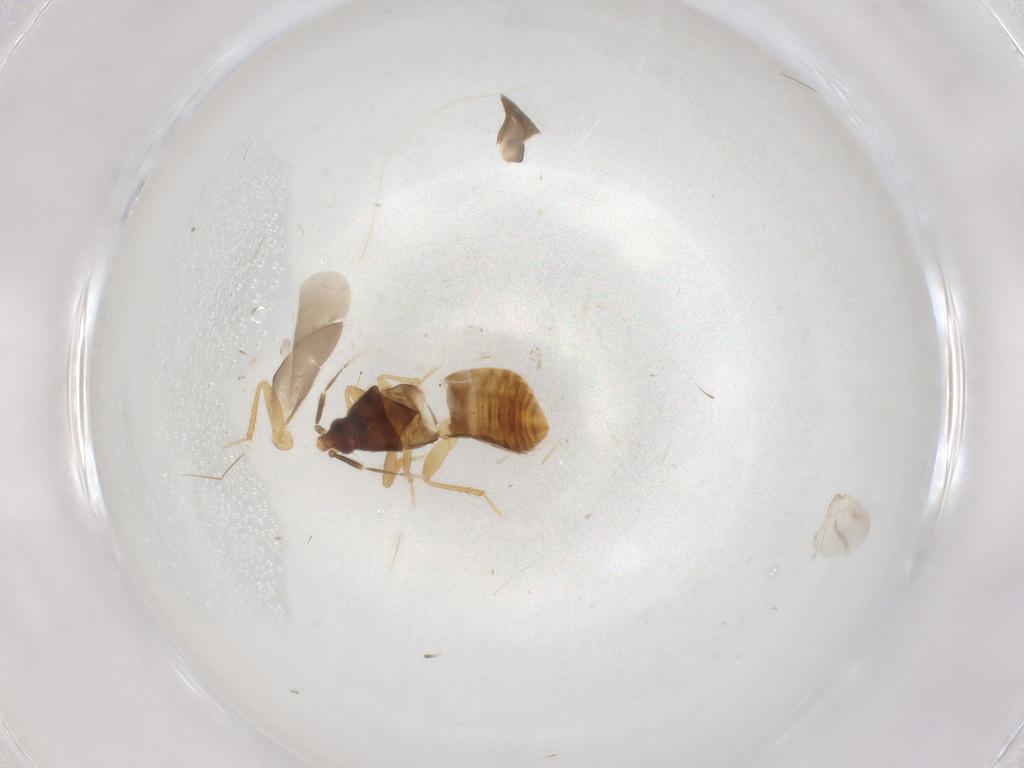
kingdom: Animalia
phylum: Arthropoda
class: Insecta
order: Hemiptera
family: Lasiochilidae
